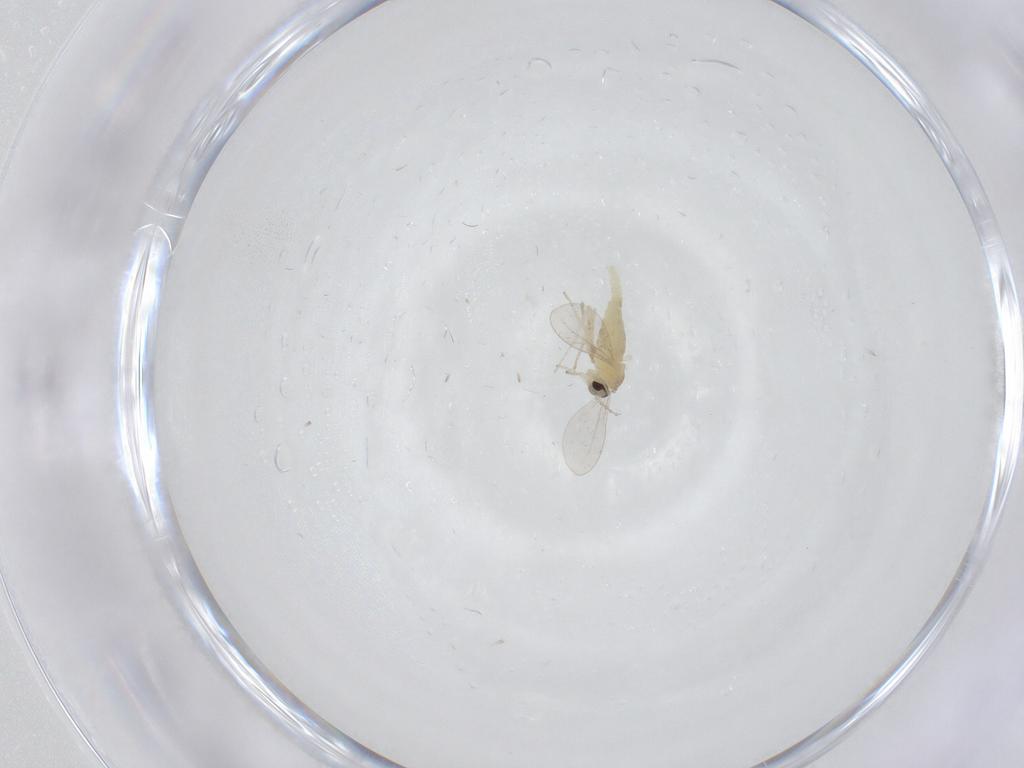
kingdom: Animalia
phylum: Arthropoda
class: Insecta
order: Diptera
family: Cecidomyiidae
